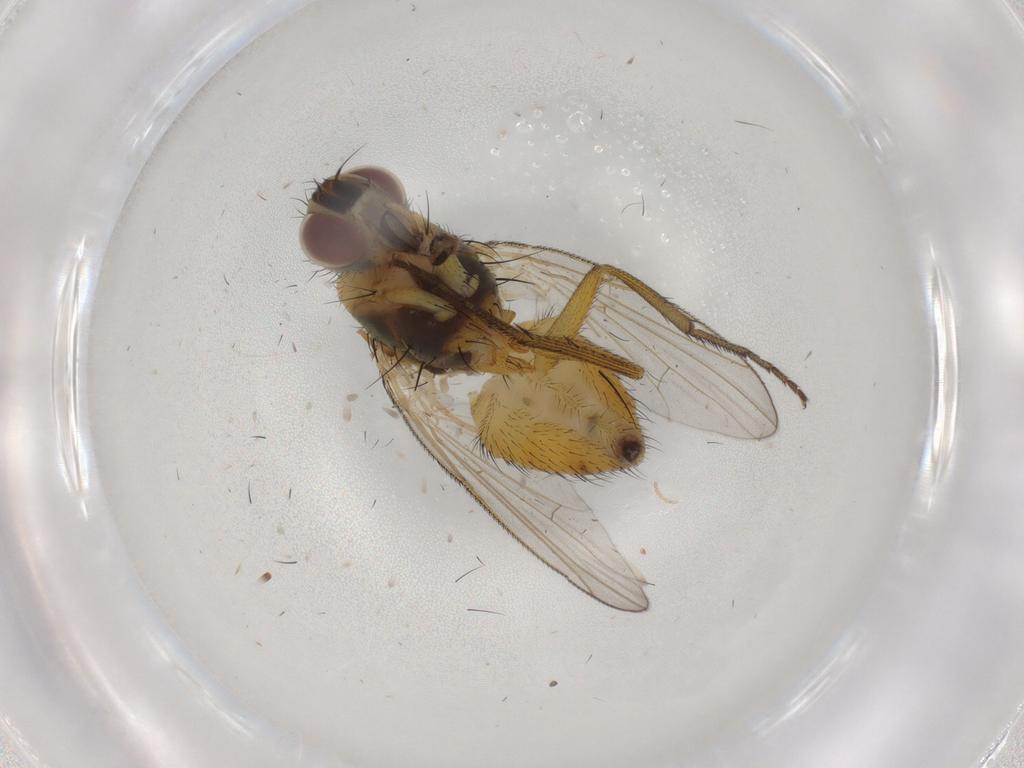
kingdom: Animalia
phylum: Arthropoda
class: Insecta
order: Diptera
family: Muscidae
